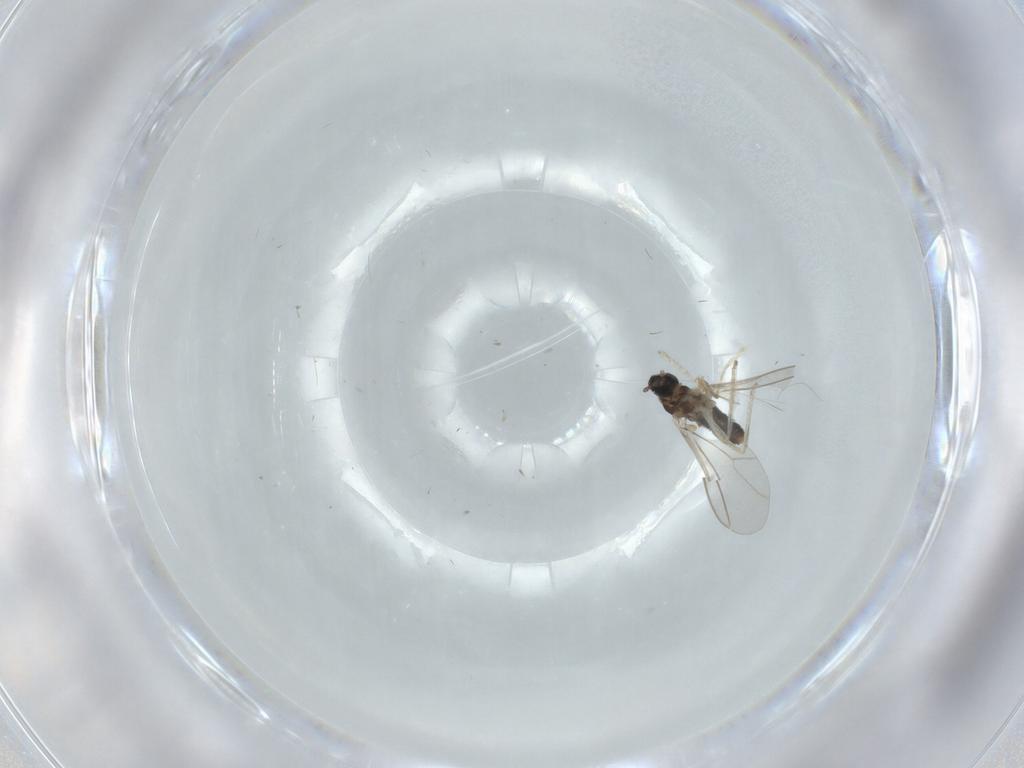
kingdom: Animalia
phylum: Arthropoda
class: Insecta
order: Diptera
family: Cecidomyiidae
